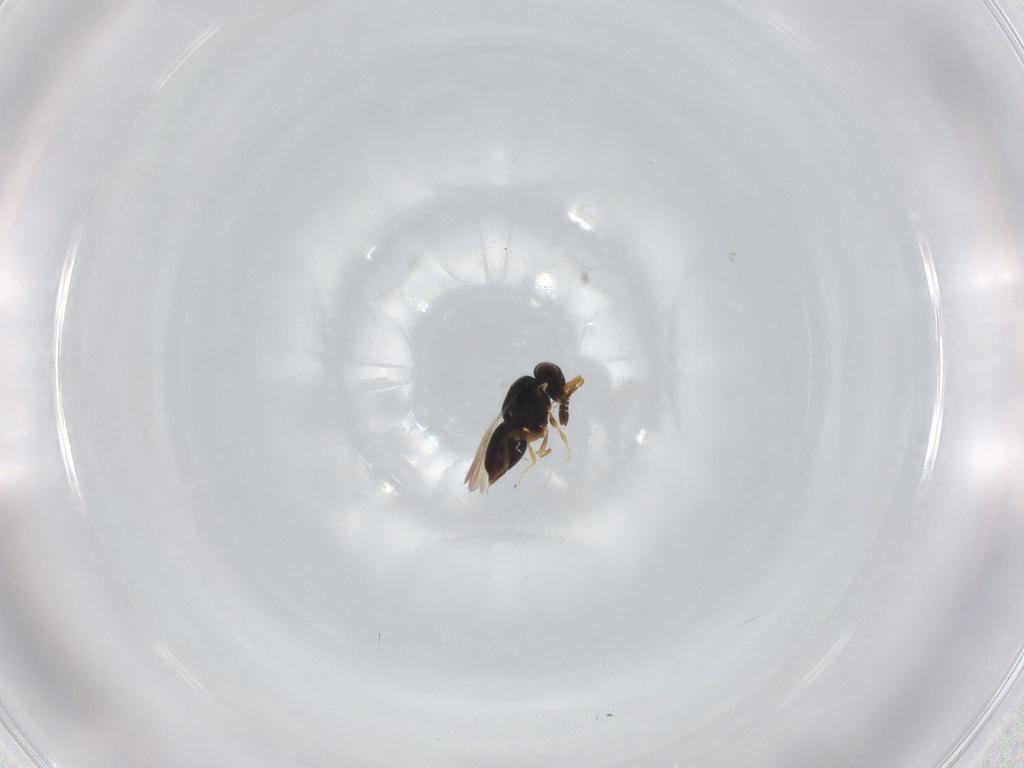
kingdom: Animalia
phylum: Arthropoda
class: Insecta
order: Hymenoptera
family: Ceraphronidae
